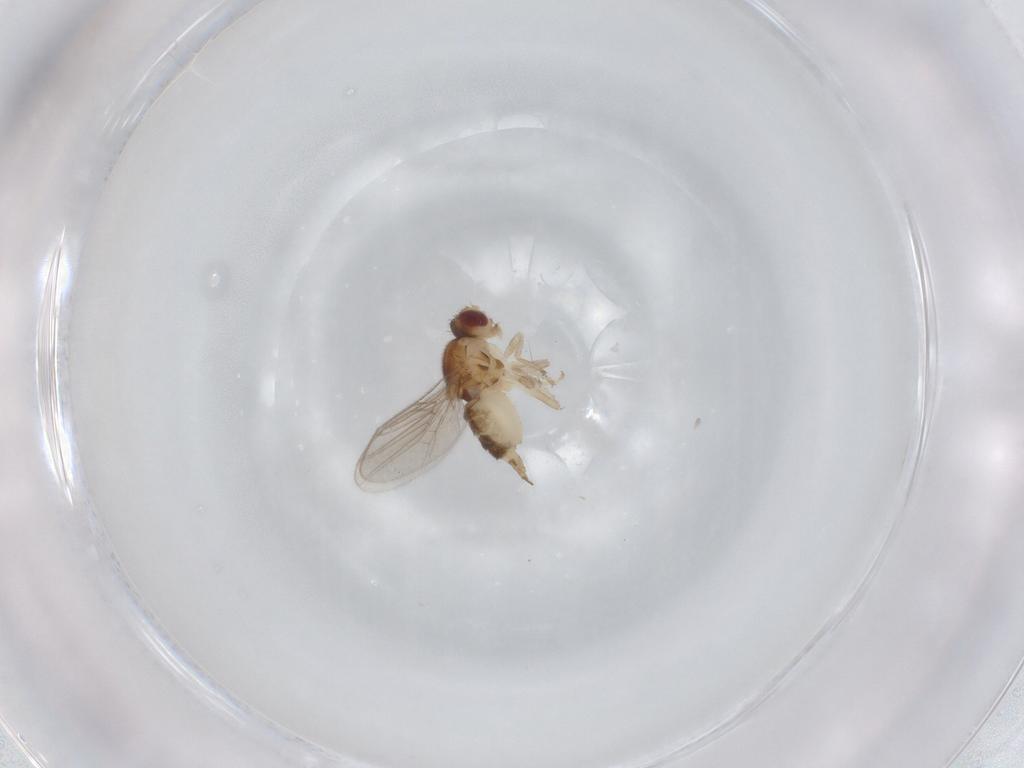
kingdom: Animalia
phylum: Arthropoda
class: Insecta
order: Diptera
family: Chloropidae
